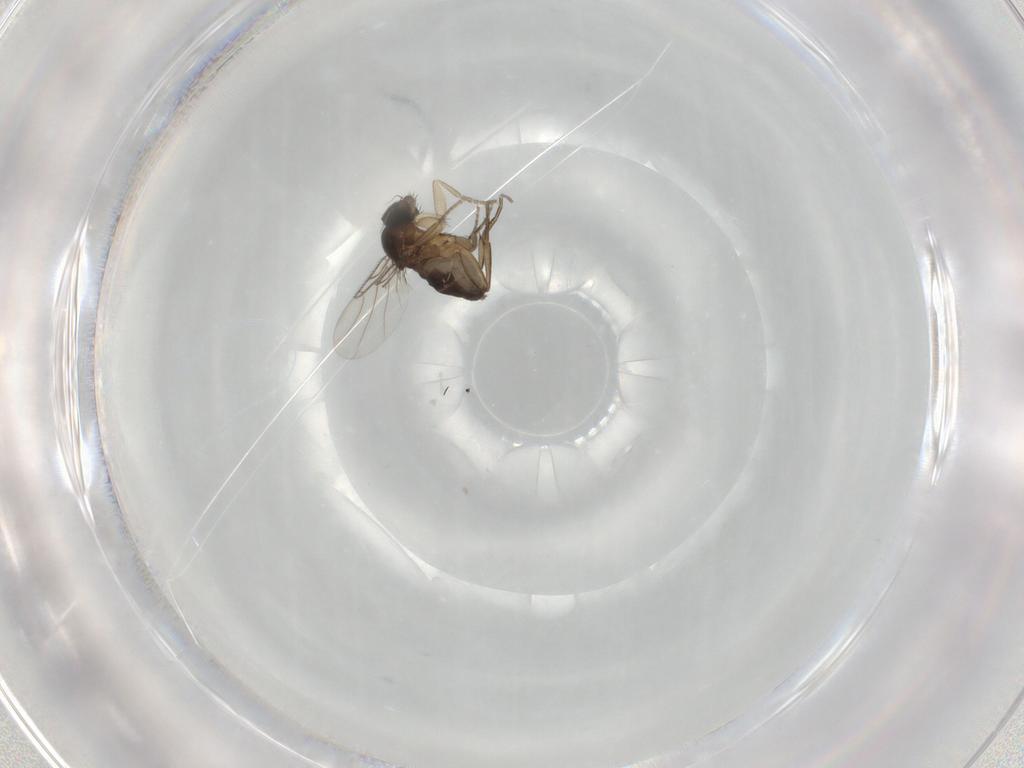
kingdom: Animalia
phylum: Arthropoda
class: Insecta
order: Diptera
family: Phoridae
